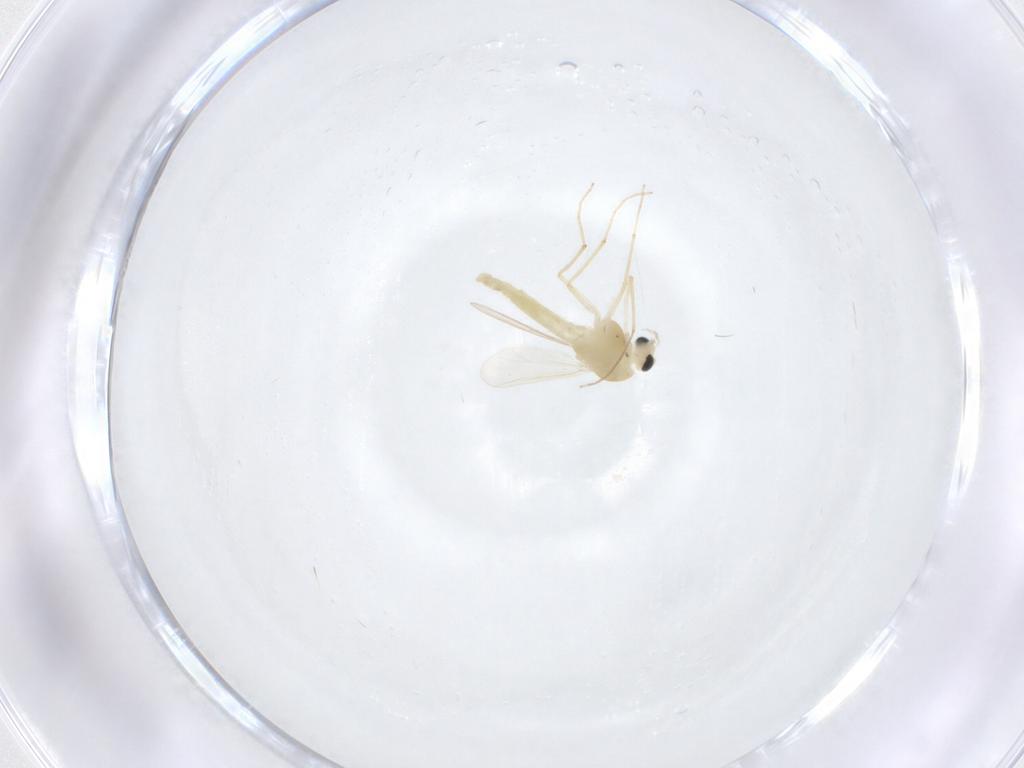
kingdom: Animalia
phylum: Arthropoda
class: Insecta
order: Diptera
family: Chironomidae
